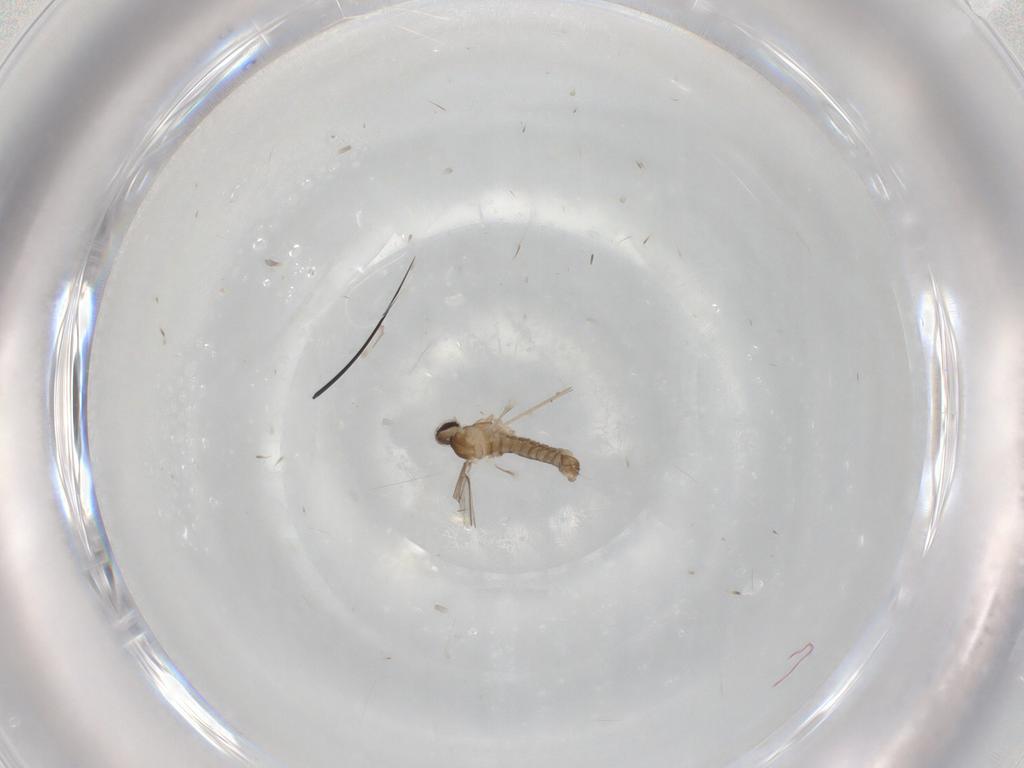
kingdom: Animalia
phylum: Arthropoda
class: Insecta
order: Diptera
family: Cecidomyiidae
